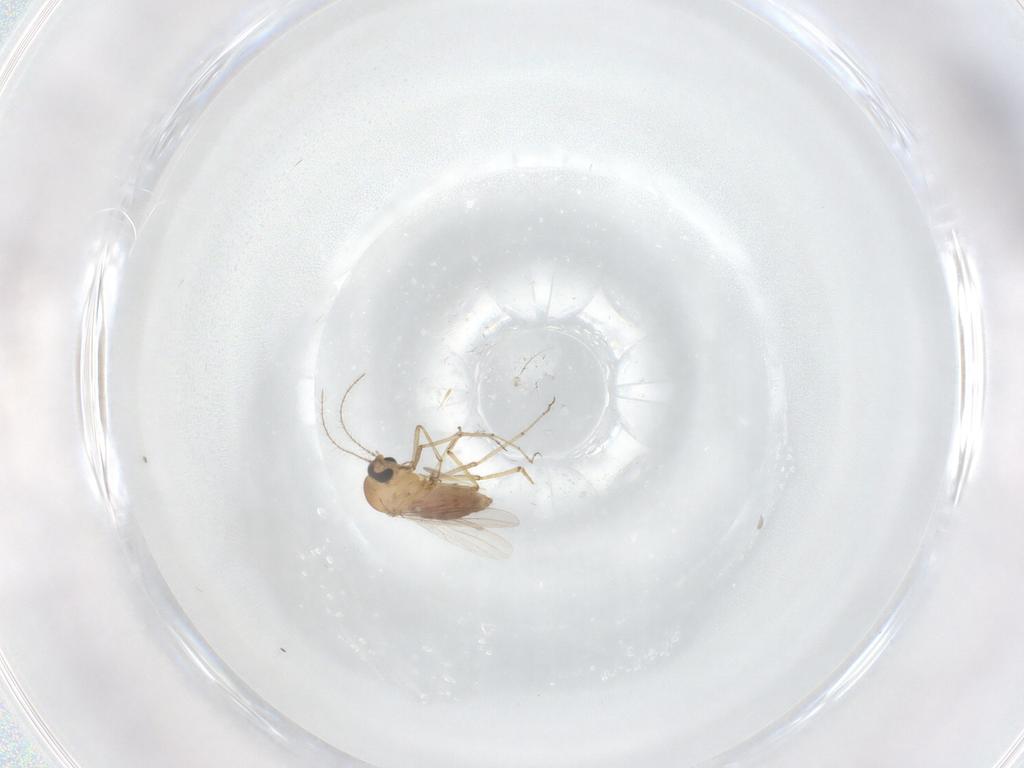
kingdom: Animalia
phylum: Arthropoda
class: Insecta
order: Diptera
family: Ceratopogonidae
